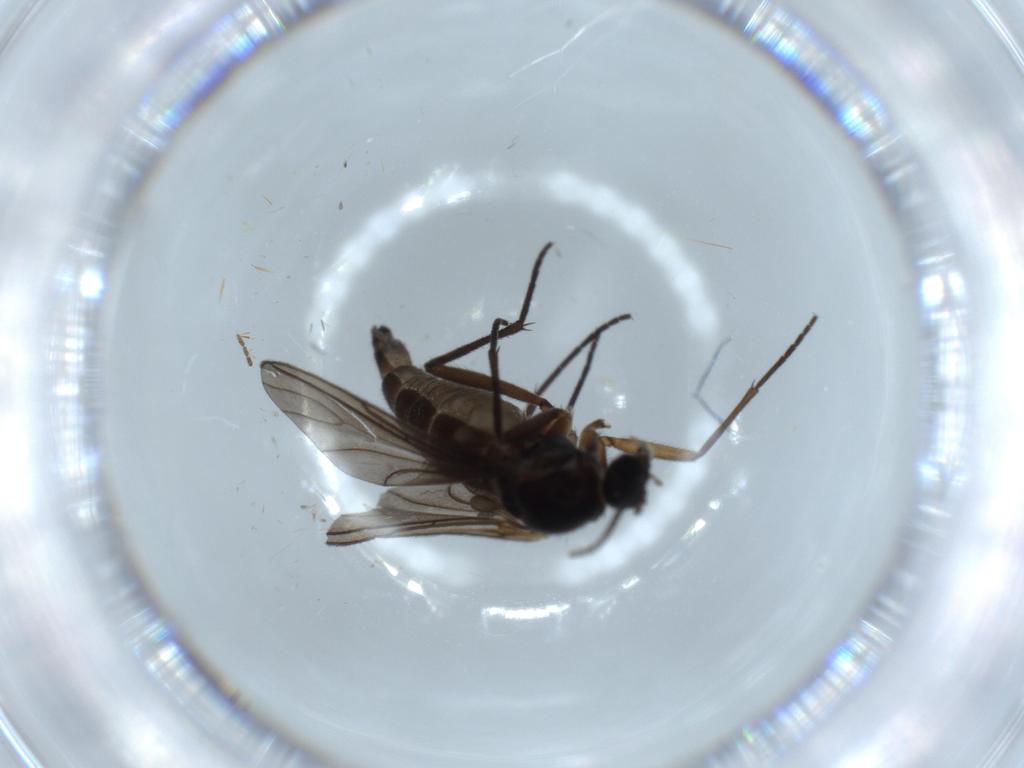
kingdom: Animalia
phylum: Arthropoda
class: Insecta
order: Diptera
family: Sciaridae
